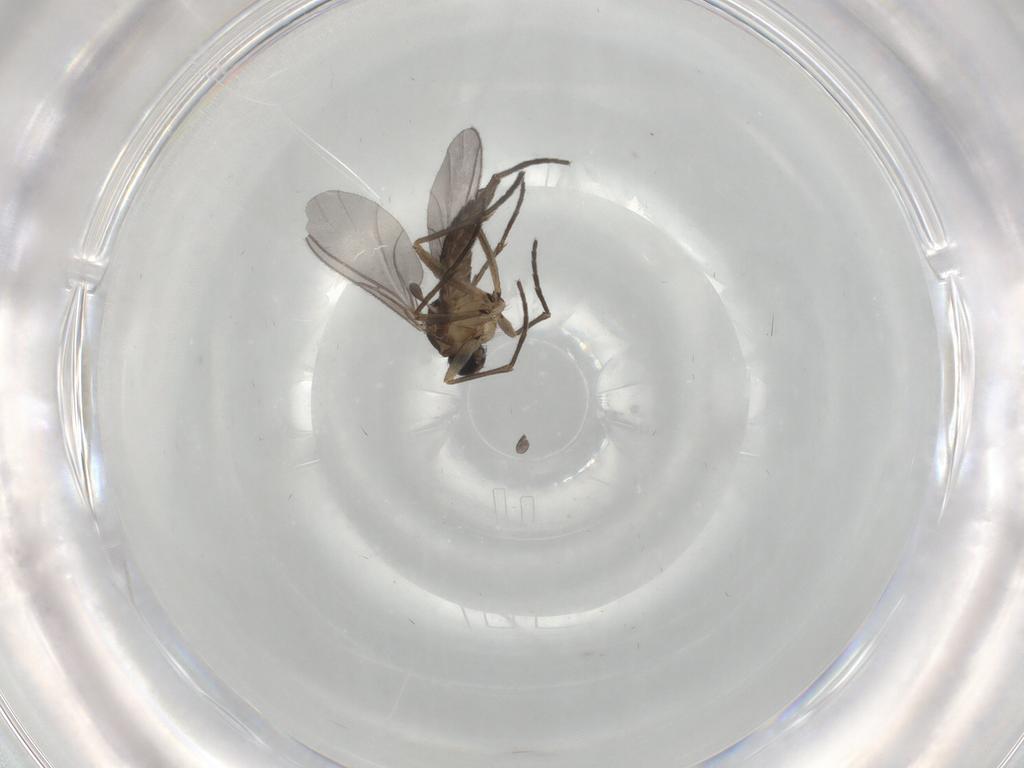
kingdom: Animalia
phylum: Arthropoda
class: Insecta
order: Diptera
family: Sciaridae
